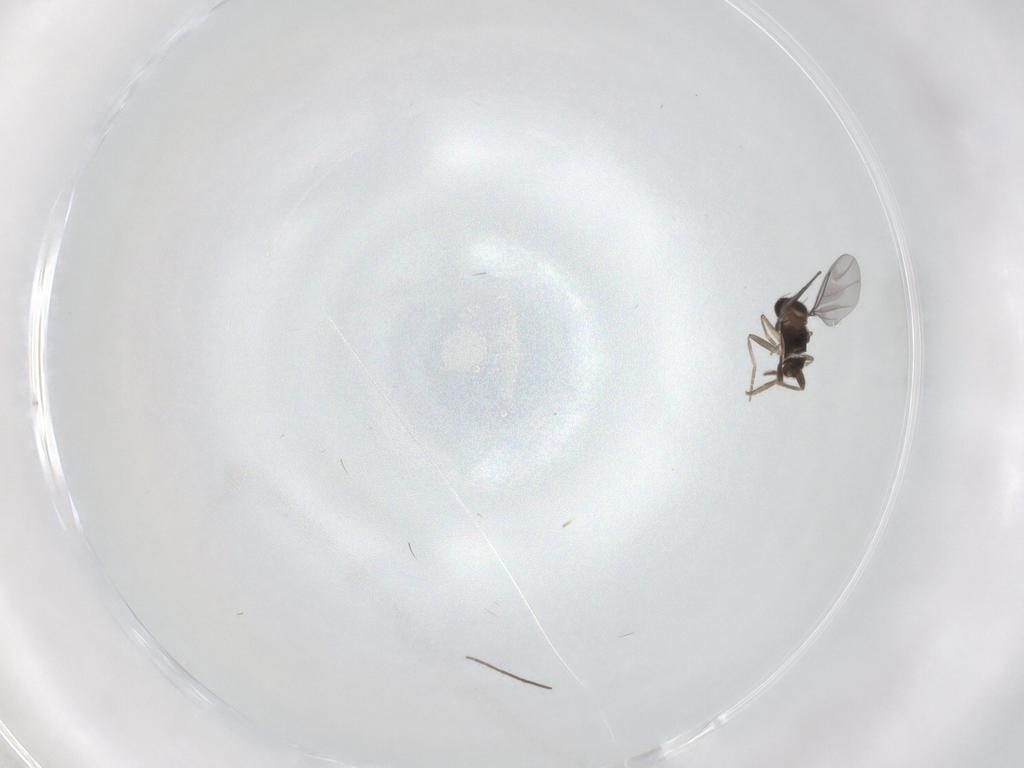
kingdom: Animalia
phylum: Arthropoda
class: Insecta
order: Diptera
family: Chironomidae
